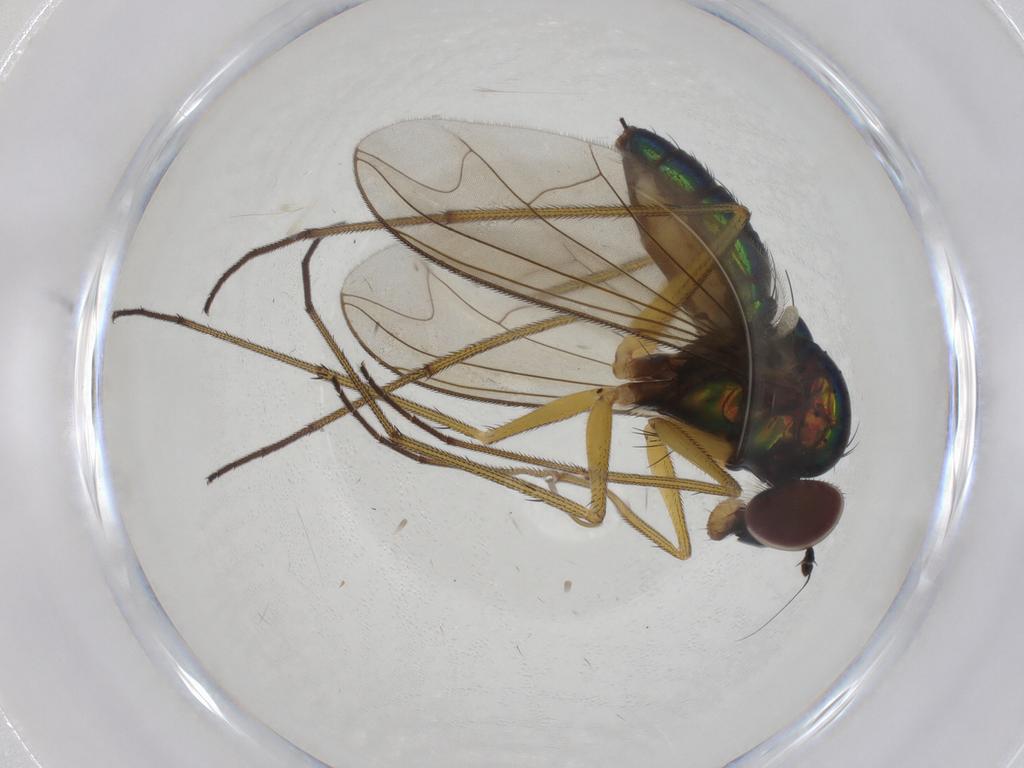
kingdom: Animalia
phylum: Arthropoda
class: Insecta
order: Diptera
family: Dolichopodidae
